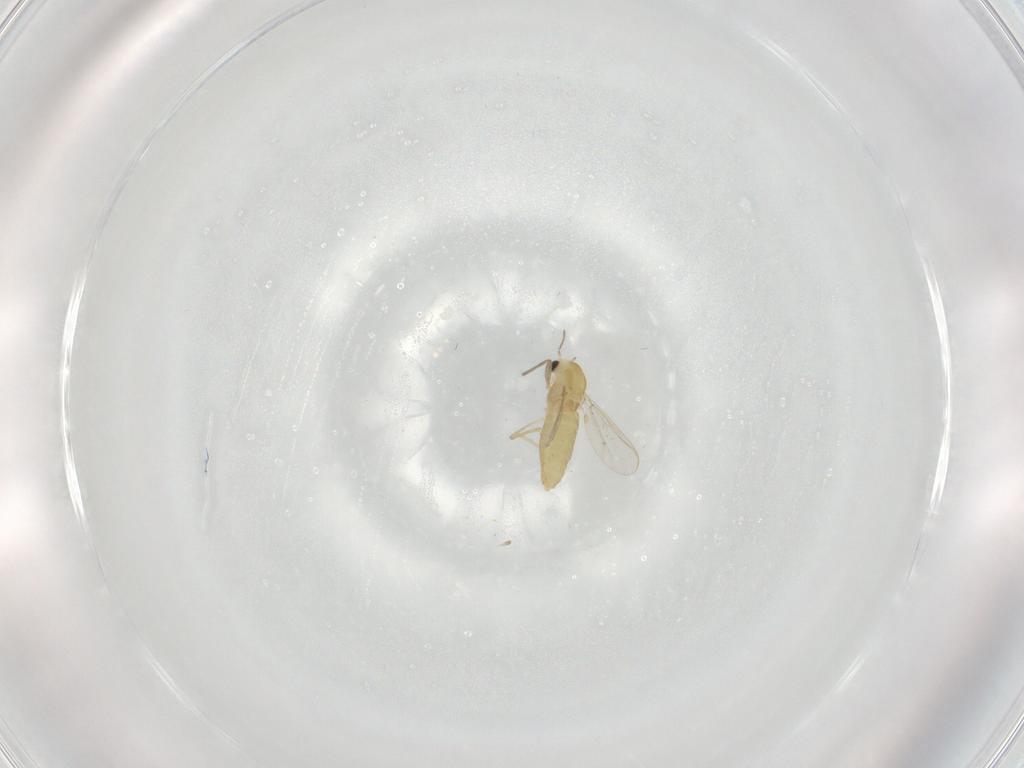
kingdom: Animalia
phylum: Arthropoda
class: Insecta
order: Diptera
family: Chironomidae
